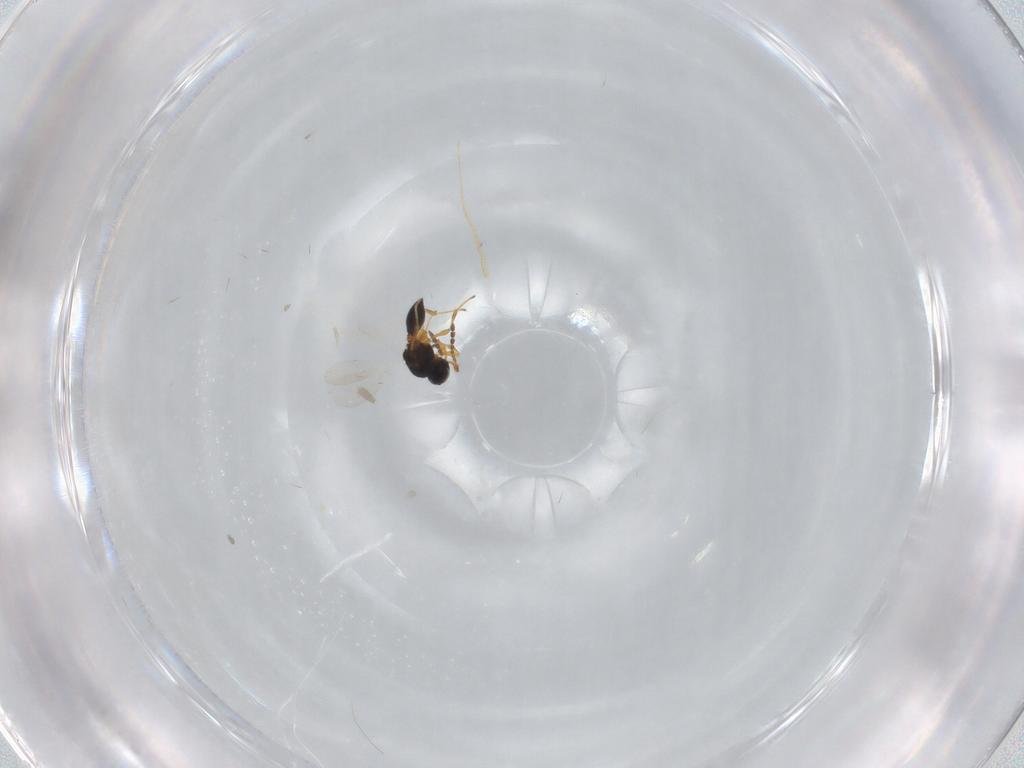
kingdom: Animalia
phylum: Arthropoda
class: Insecta
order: Hymenoptera
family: Platygastridae
